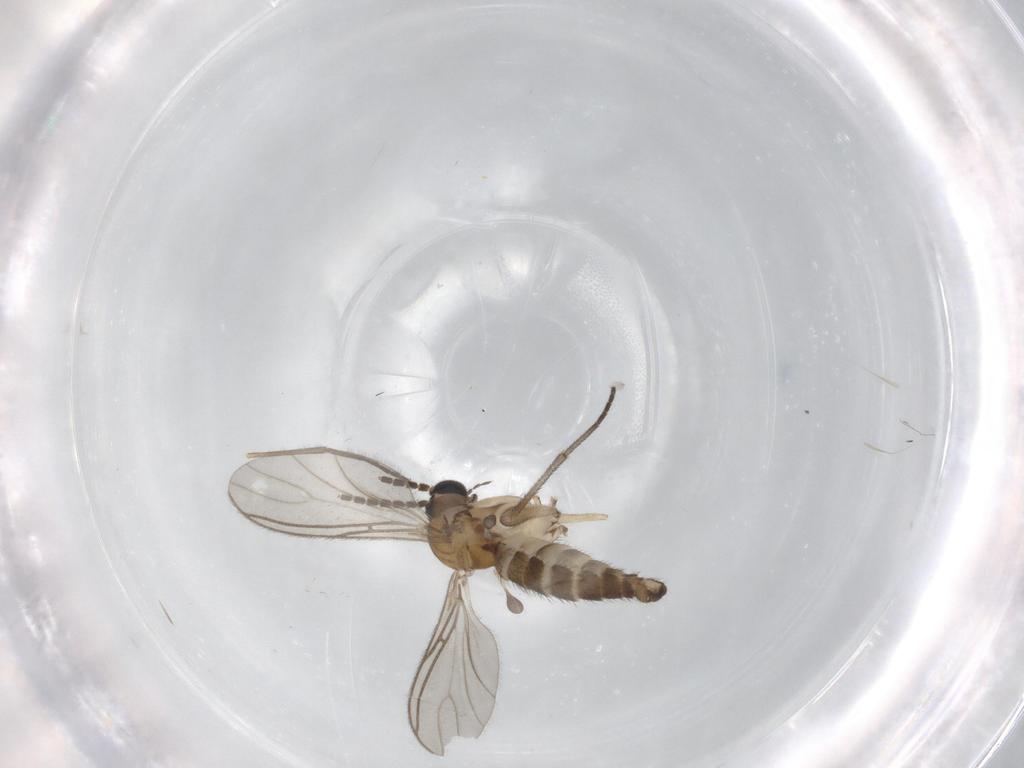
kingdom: Animalia
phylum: Arthropoda
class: Insecta
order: Diptera
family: Sciaridae
